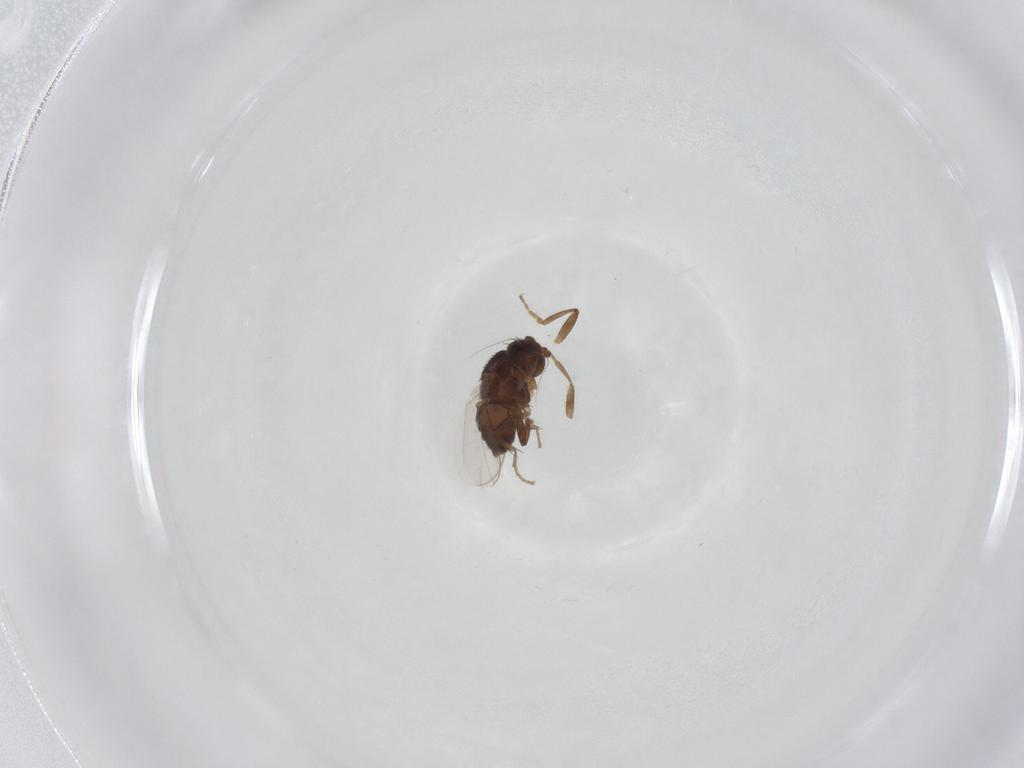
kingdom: Animalia
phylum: Arthropoda
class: Insecta
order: Diptera
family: Sphaeroceridae
